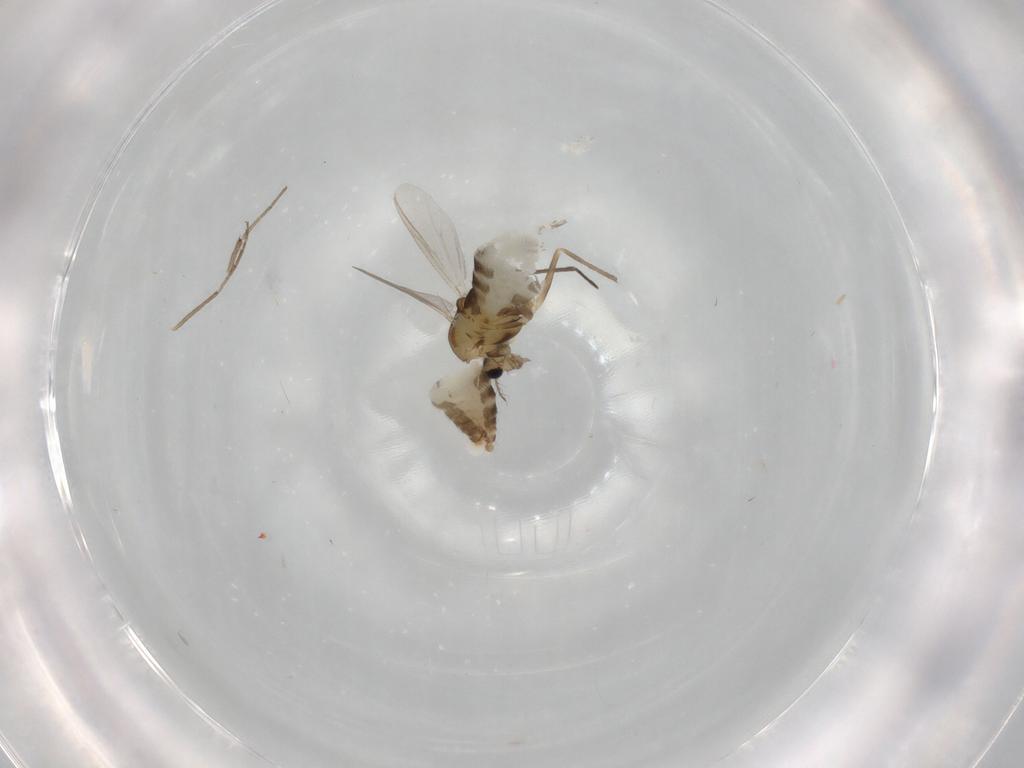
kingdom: Animalia
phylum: Arthropoda
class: Insecta
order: Diptera
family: Chironomidae
